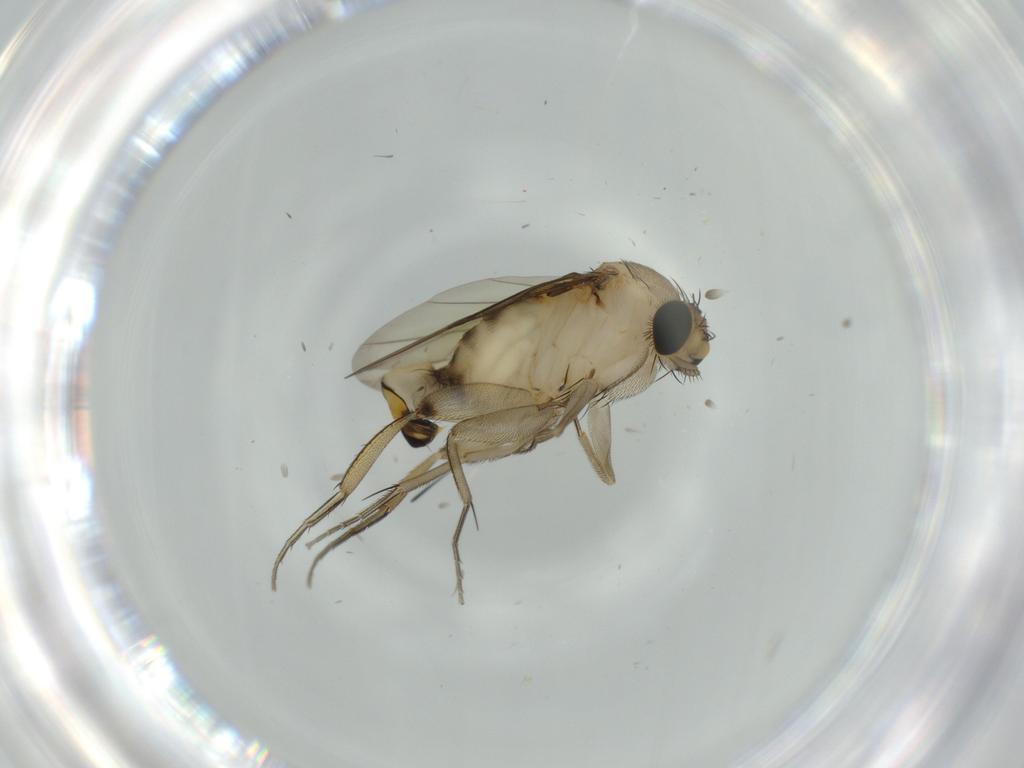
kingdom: Animalia
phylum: Arthropoda
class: Insecta
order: Diptera
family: Phoridae
